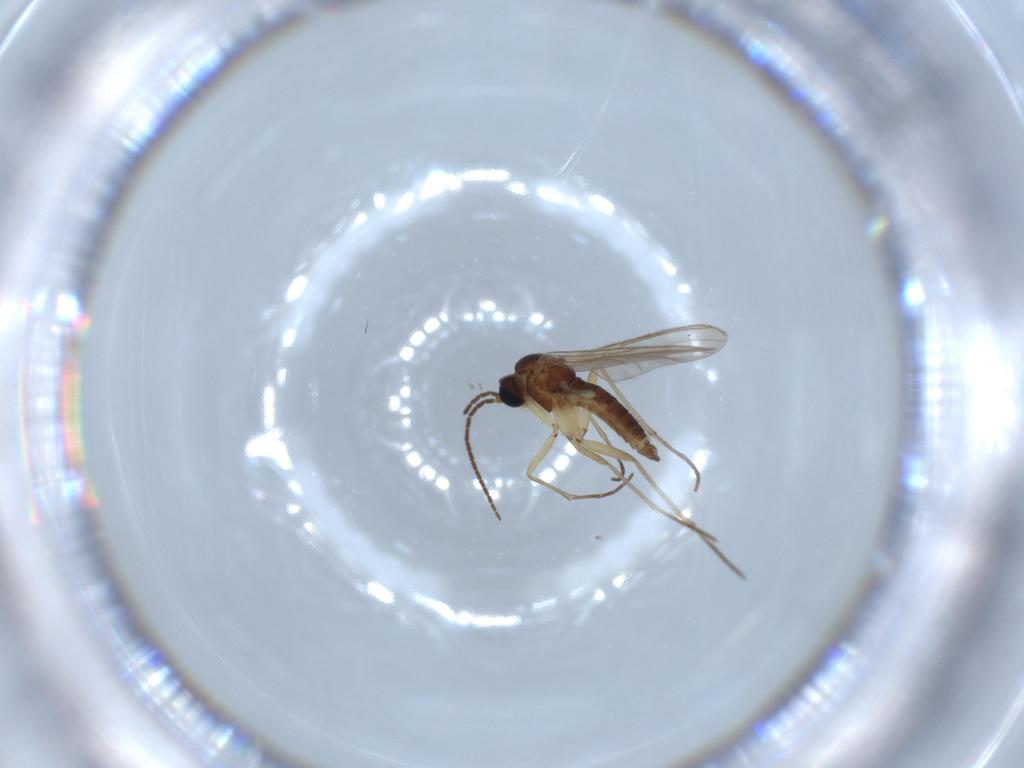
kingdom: Animalia
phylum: Arthropoda
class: Insecta
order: Diptera
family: Sciaridae
